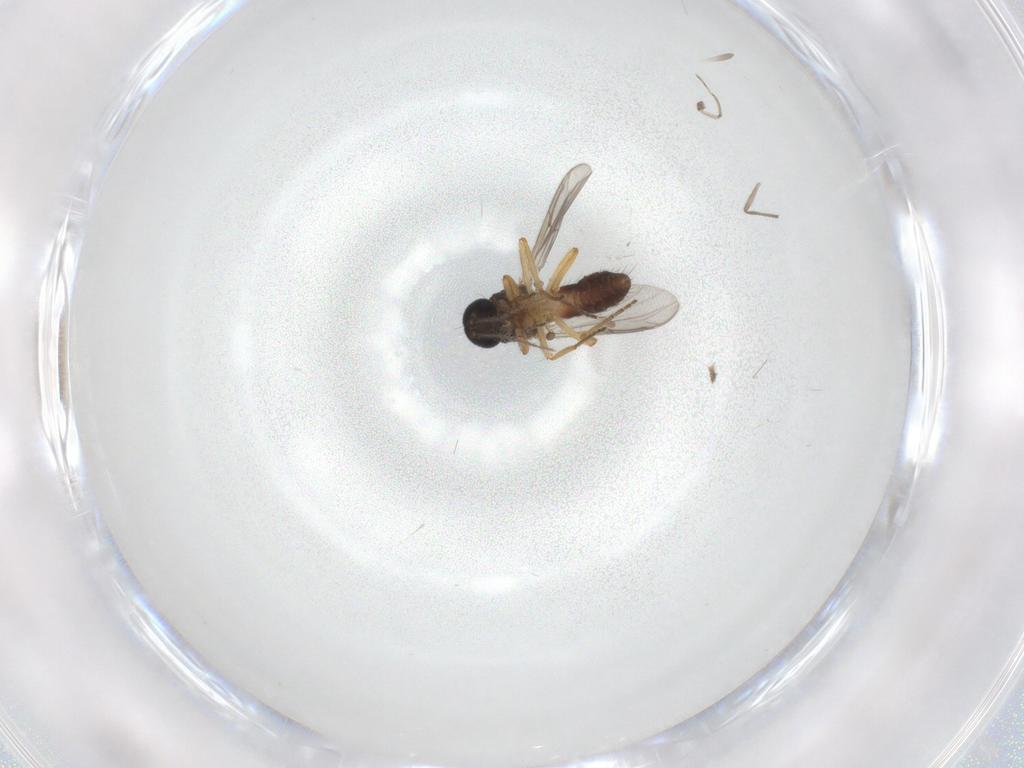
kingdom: Animalia
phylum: Arthropoda
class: Insecta
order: Diptera
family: Ceratopogonidae
